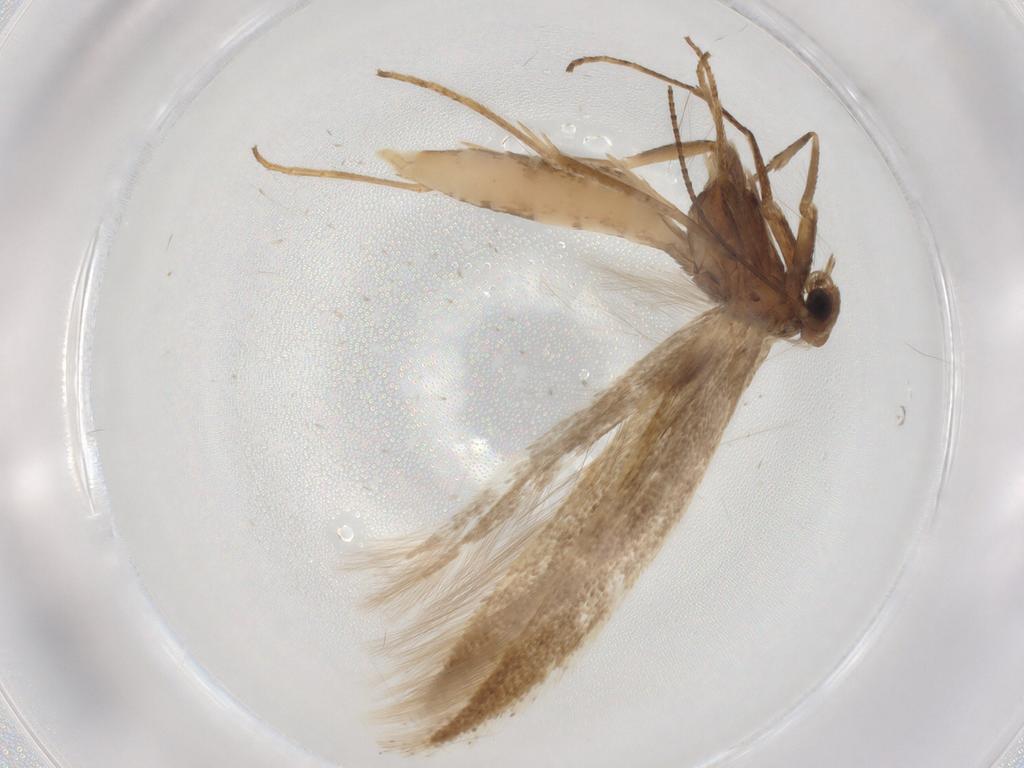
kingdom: Animalia
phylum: Arthropoda
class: Insecta
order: Lepidoptera
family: Bedelliidae
